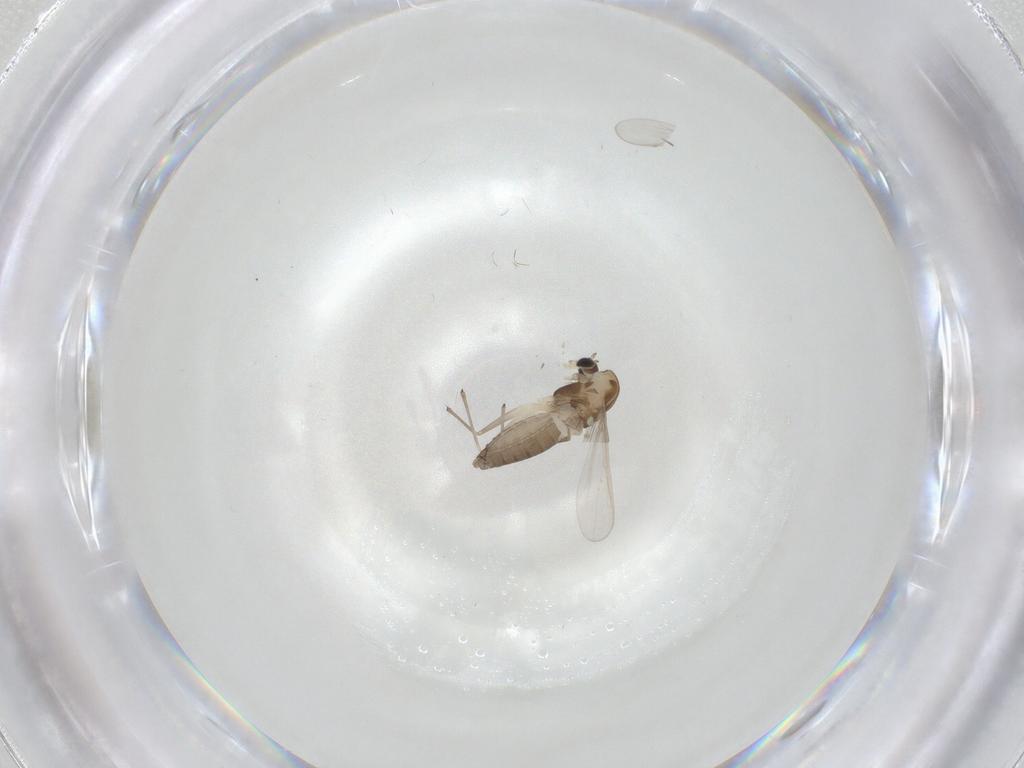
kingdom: Animalia
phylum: Arthropoda
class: Insecta
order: Diptera
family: Chironomidae
